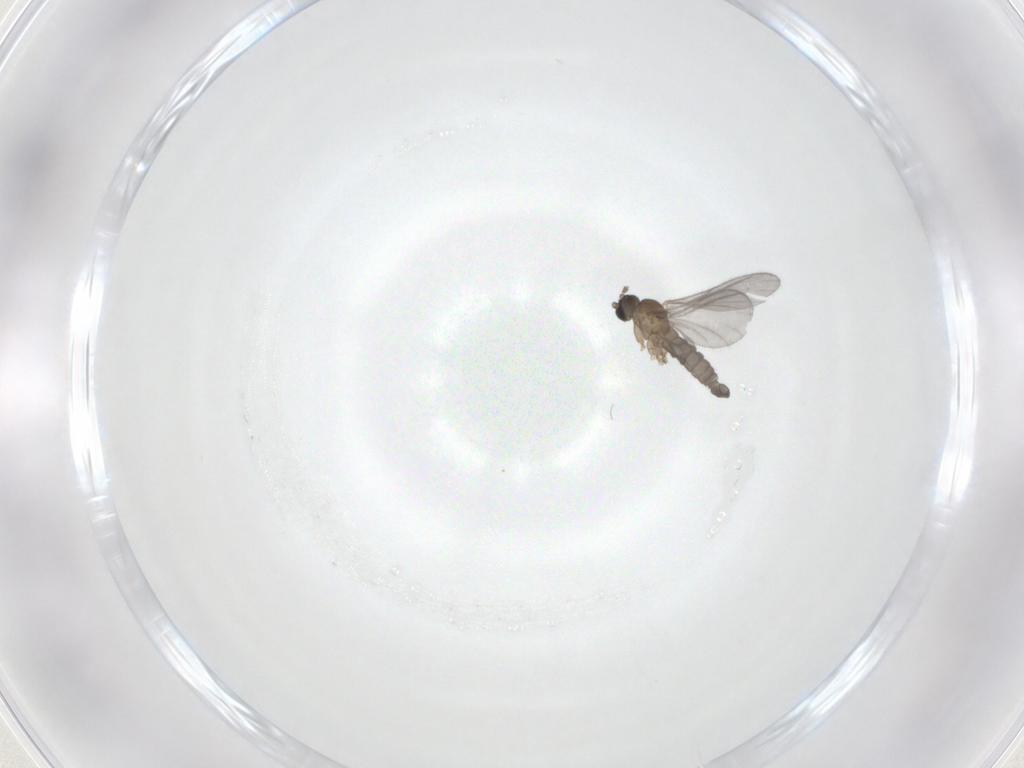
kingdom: Animalia
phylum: Arthropoda
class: Insecta
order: Diptera
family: Sciaridae
